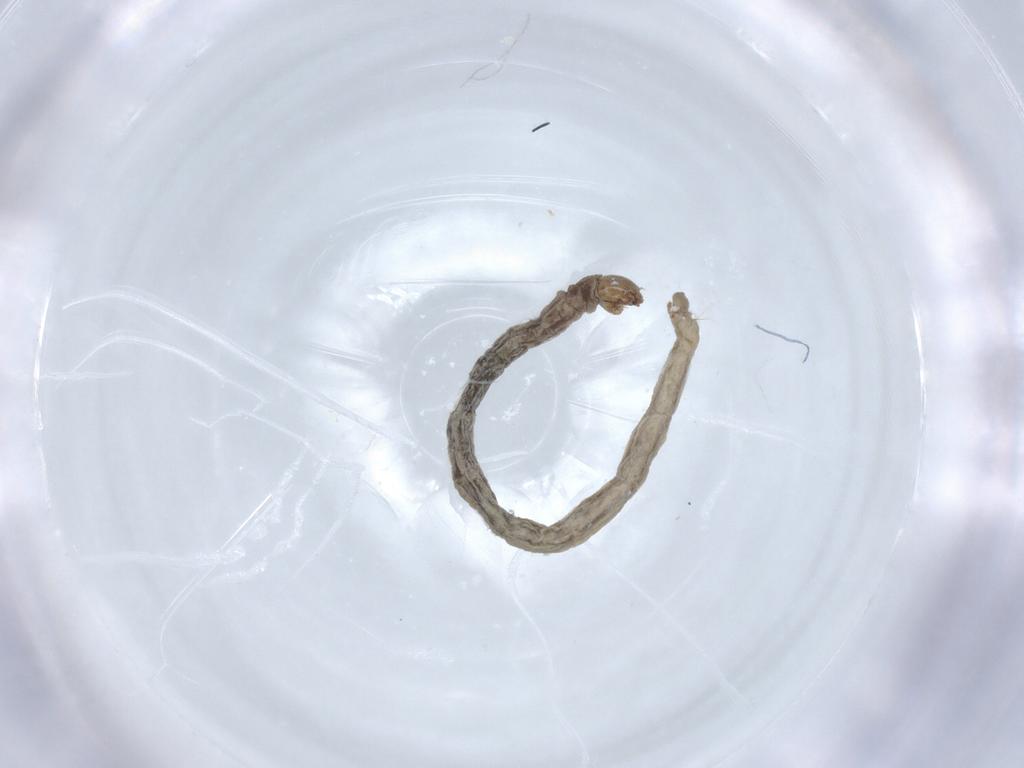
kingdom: Animalia
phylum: Arthropoda
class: Insecta
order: Diptera
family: Chironomidae
